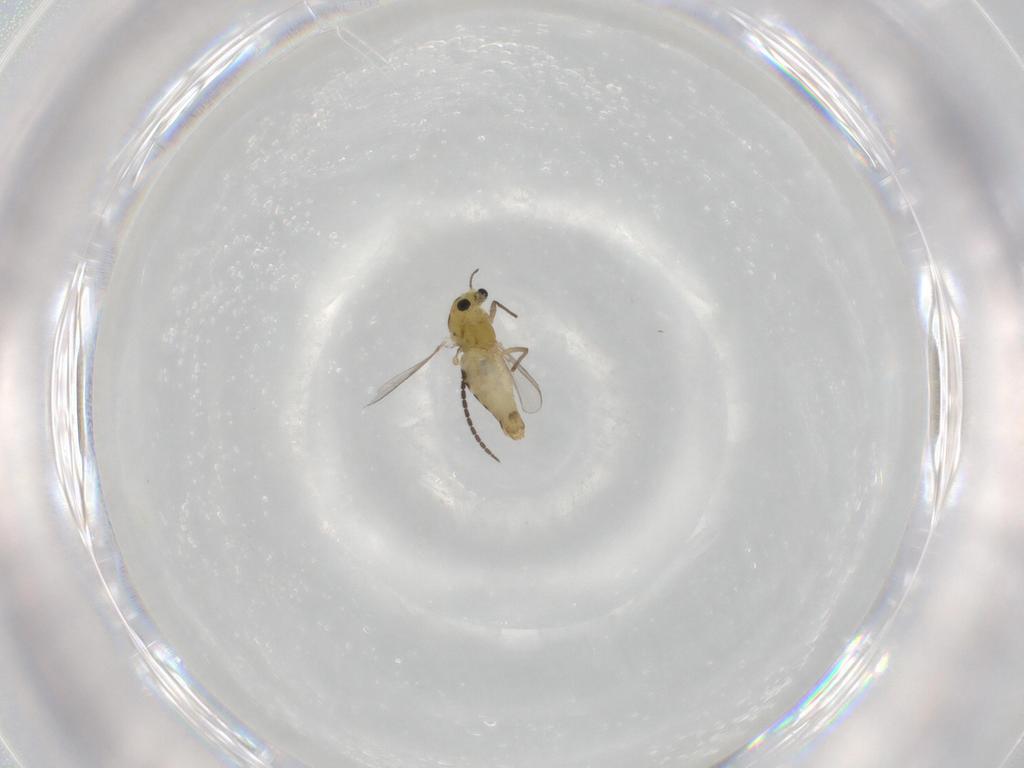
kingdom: Animalia
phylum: Arthropoda
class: Insecta
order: Diptera
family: Chironomidae
